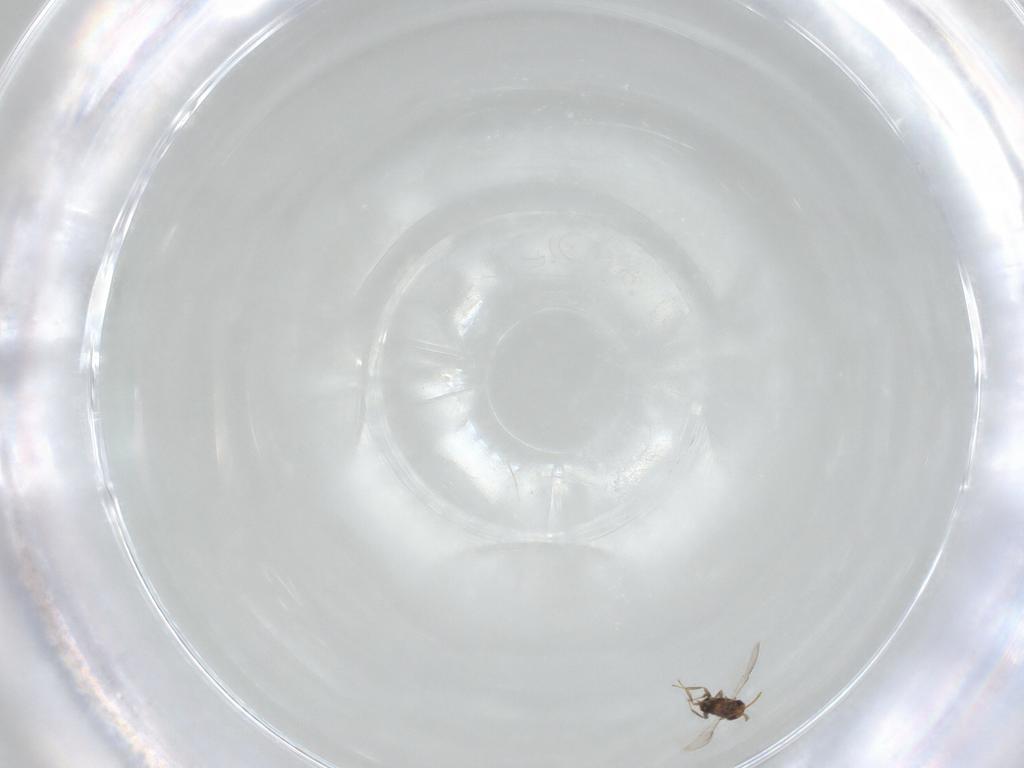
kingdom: Animalia
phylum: Arthropoda
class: Insecta
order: Hymenoptera
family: Aphelinidae
